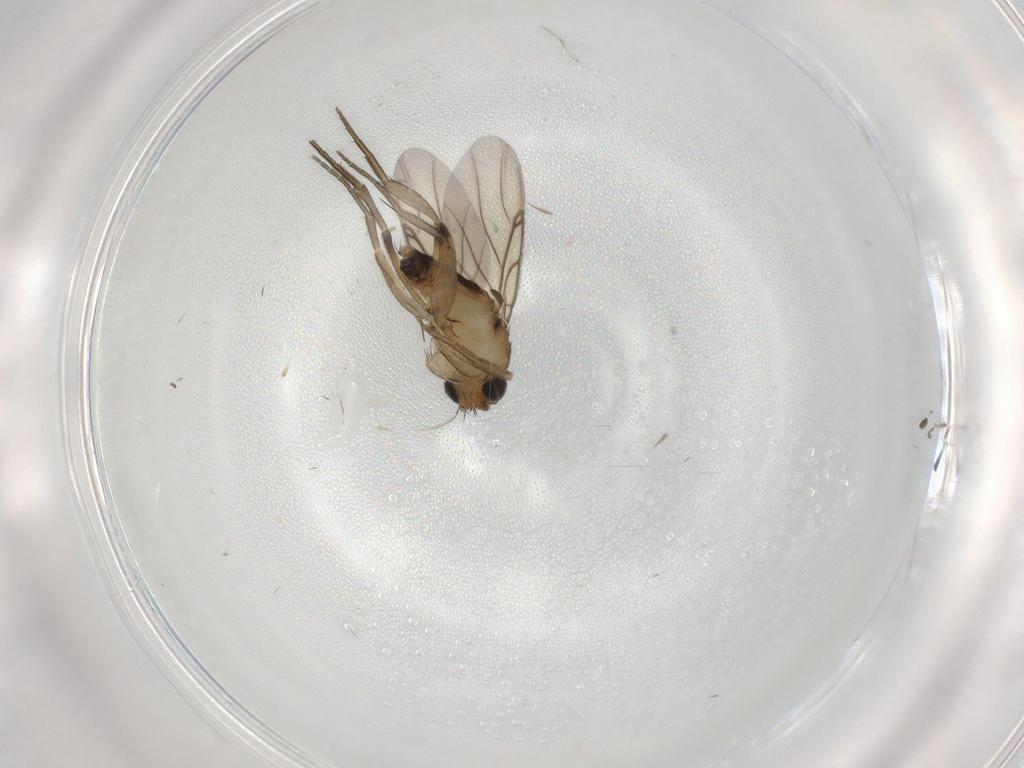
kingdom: Animalia
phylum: Arthropoda
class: Insecta
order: Diptera
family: Phoridae
